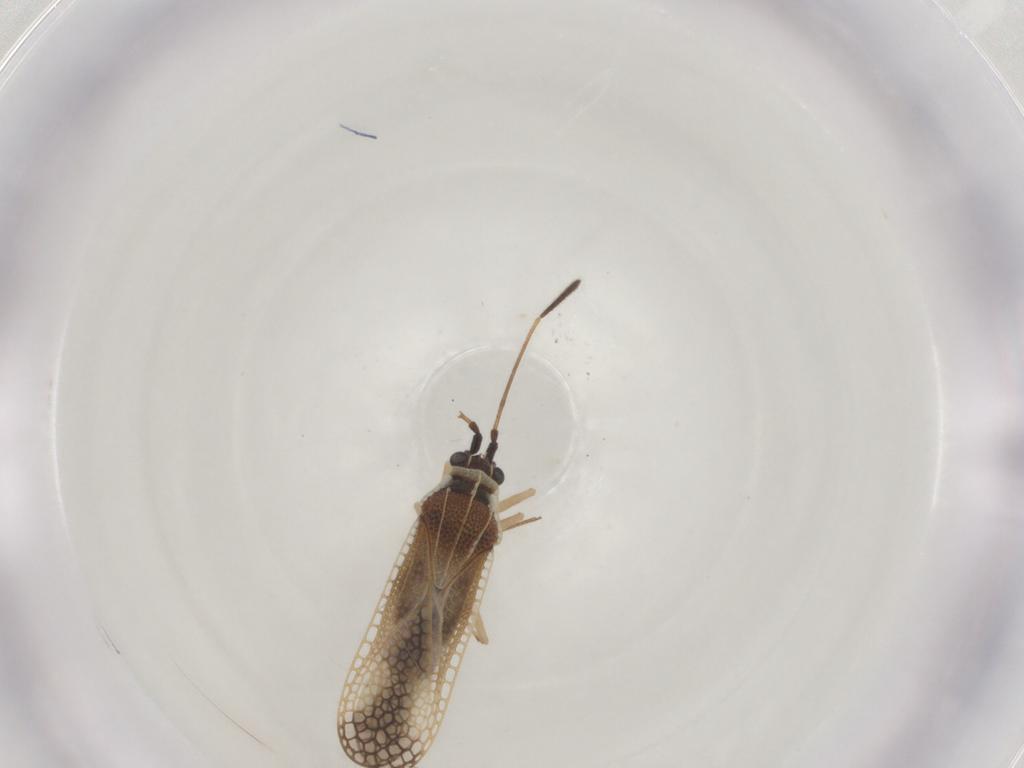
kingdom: Animalia
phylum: Arthropoda
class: Insecta
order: Hemiptera
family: Tingidae
